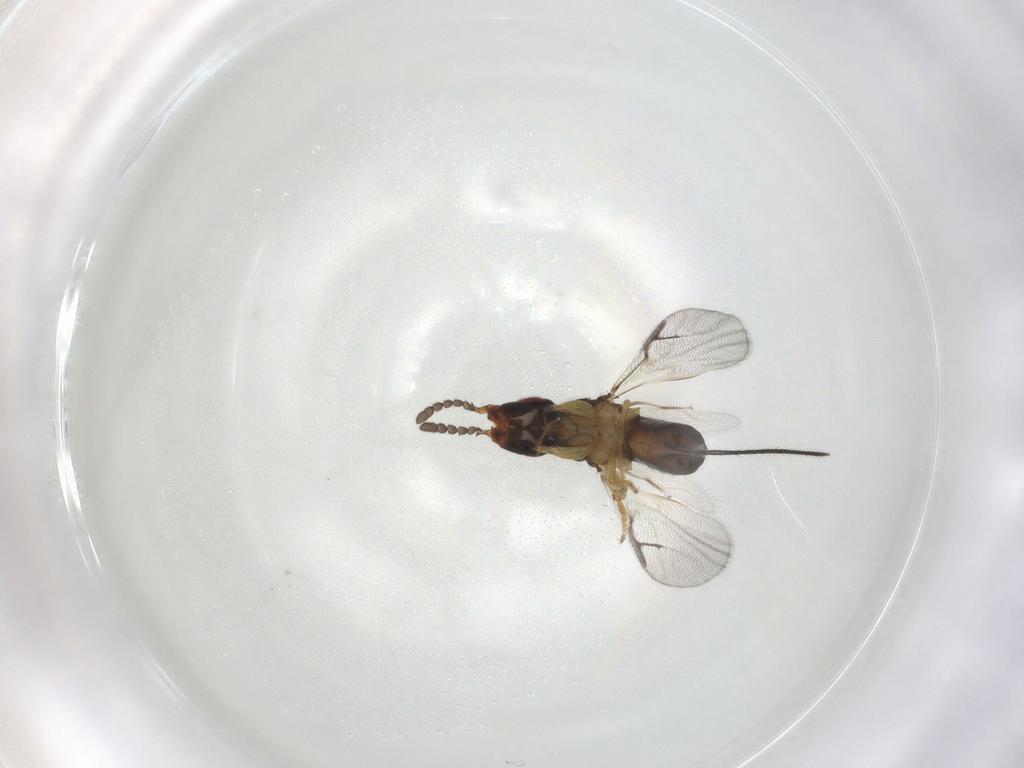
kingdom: Animalia
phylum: Arthropoda
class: Insecta
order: Hymenoptera
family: Agaonidae
